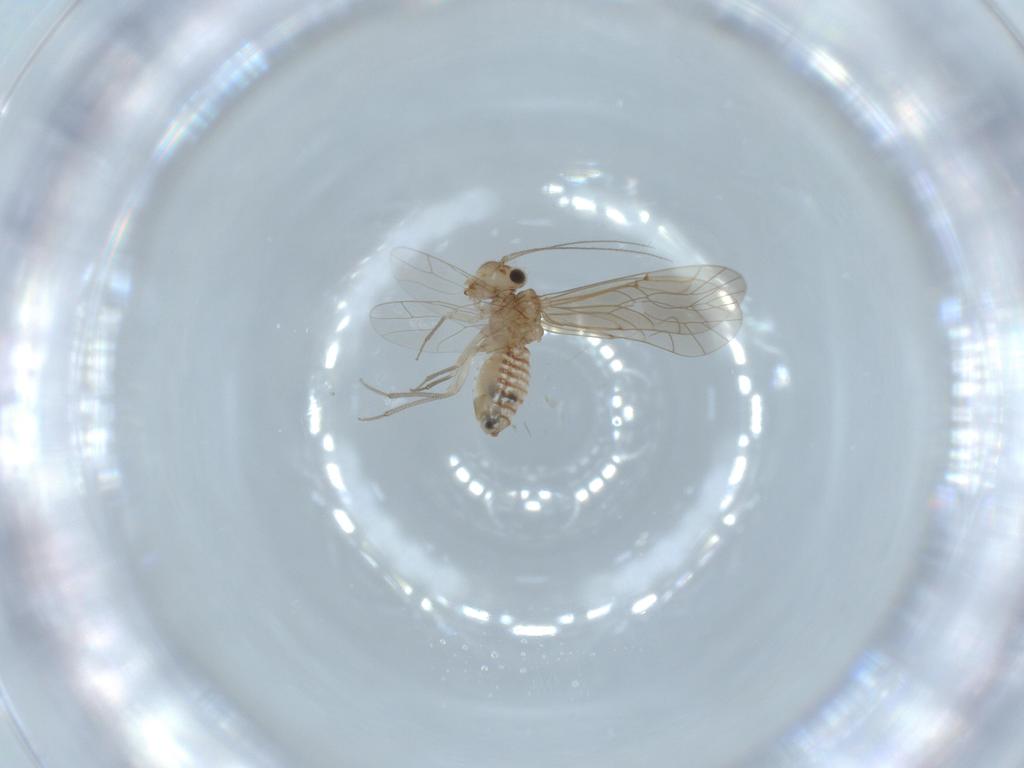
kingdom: Animalia
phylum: Arthropoda
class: Insecta
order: Psocodea
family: Lachesillidae
